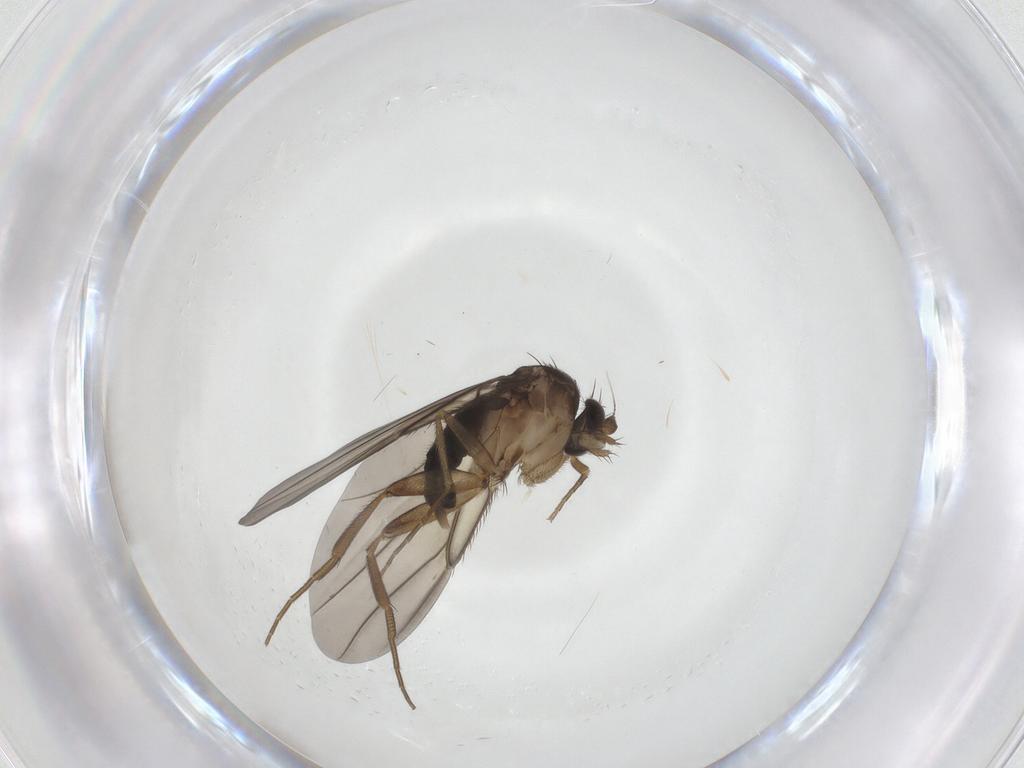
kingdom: Animalia
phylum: Arthropoda
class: Insecta
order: Diptera
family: Phoridae
